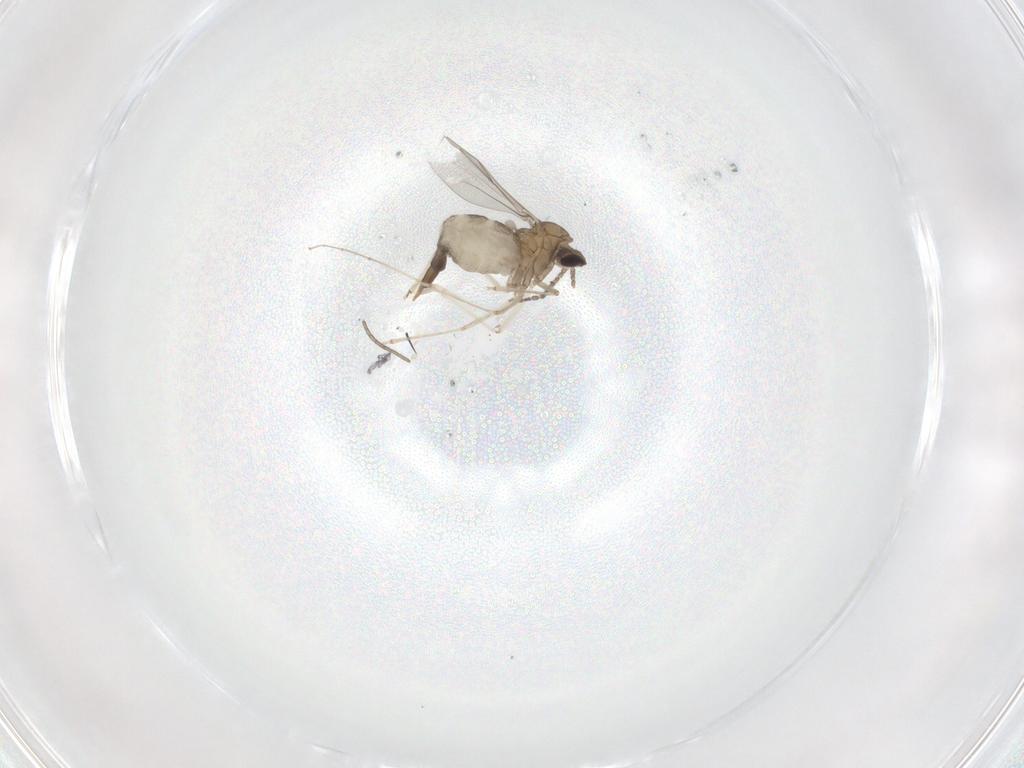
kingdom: Animalia
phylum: Arthropoda
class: Insecta
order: Diptera
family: Cecidomyiidae
